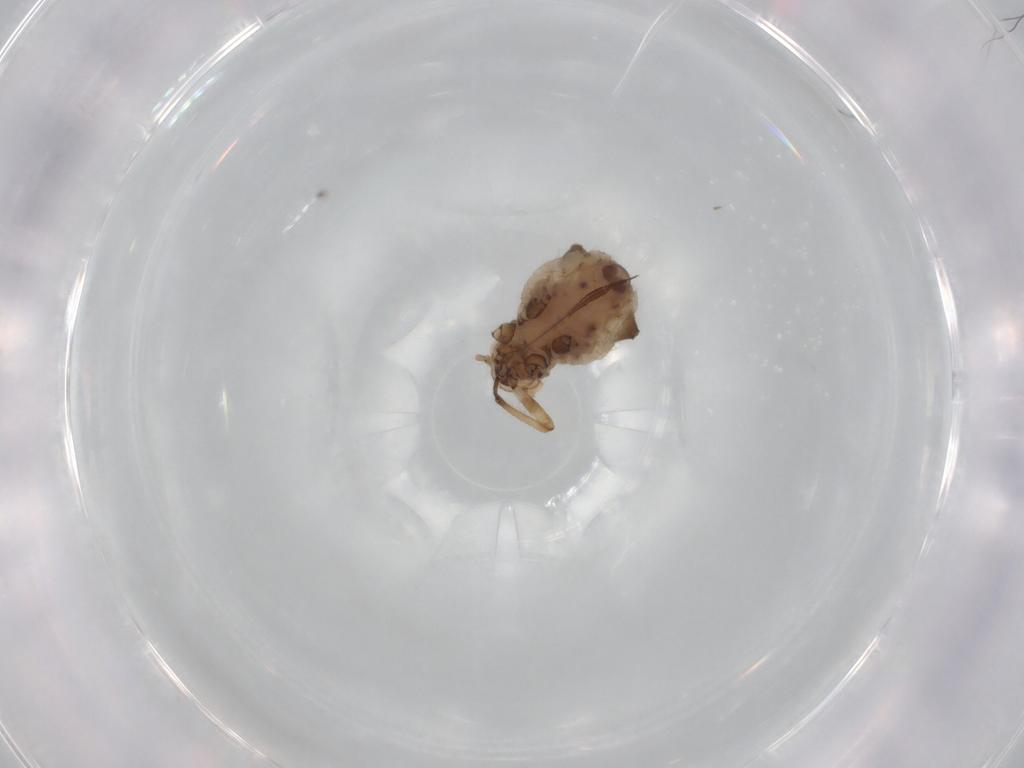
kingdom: Animalia
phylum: Arthropoda
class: Insecta
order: Hemiptera
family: Aphididae
